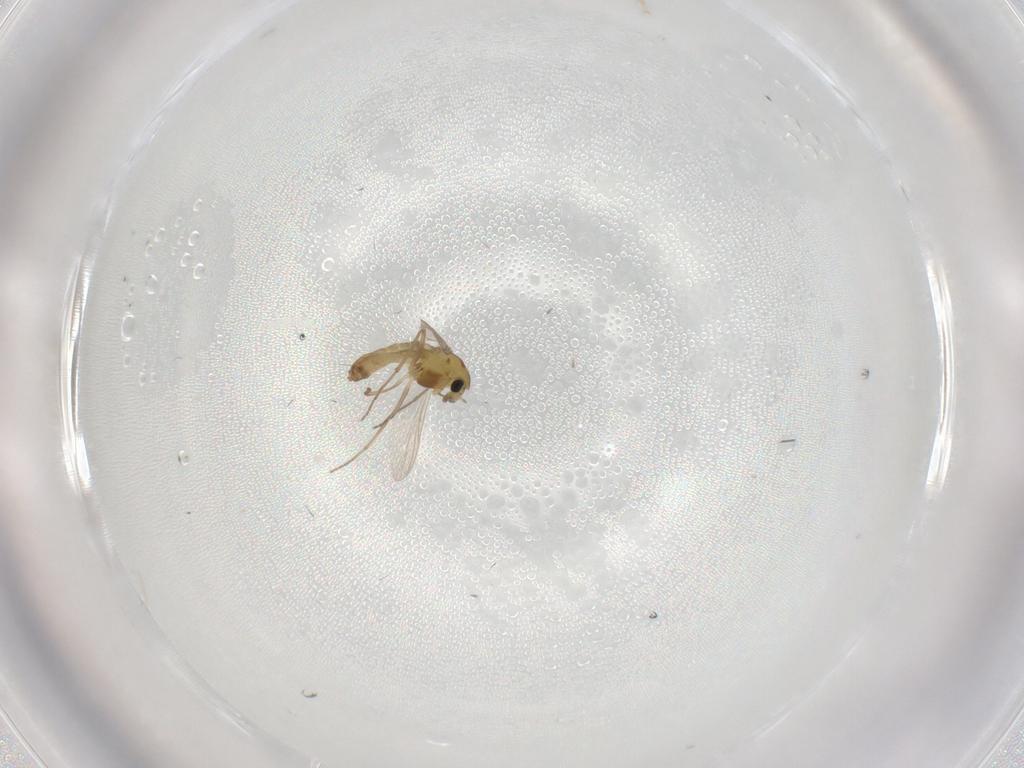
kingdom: Animalia
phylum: Arthropoda
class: Insecta
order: Diptera
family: Chironomidae
